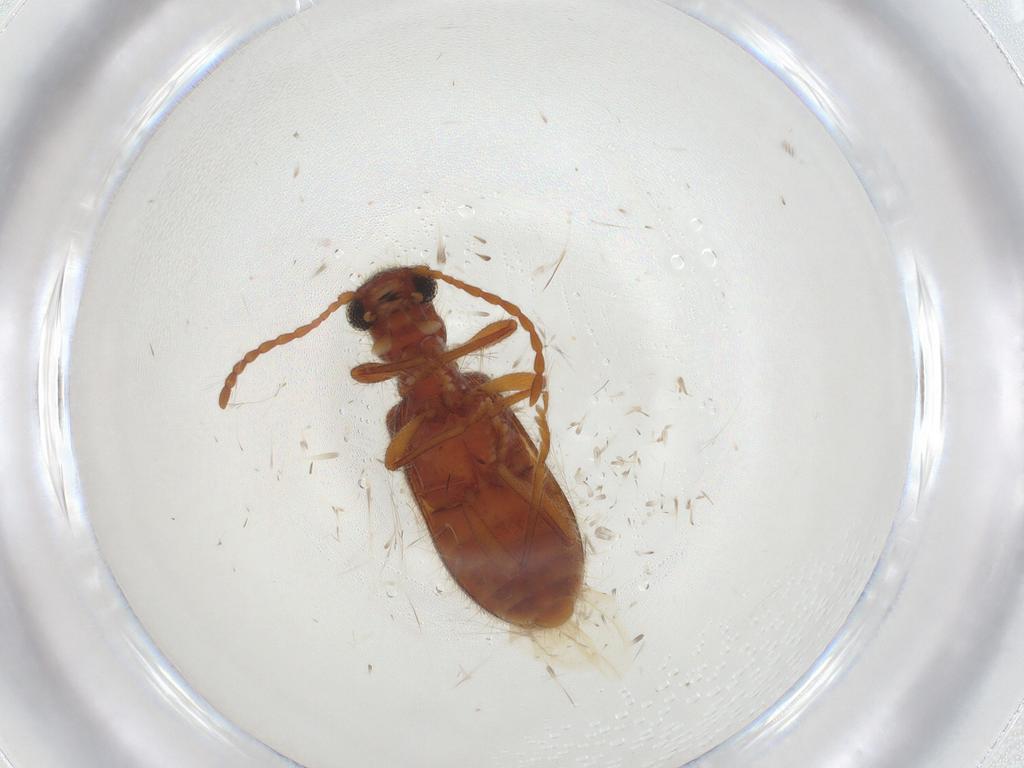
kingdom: Animalia
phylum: Arthropoda
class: Insecta
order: Coleoptera
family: Cleridae
